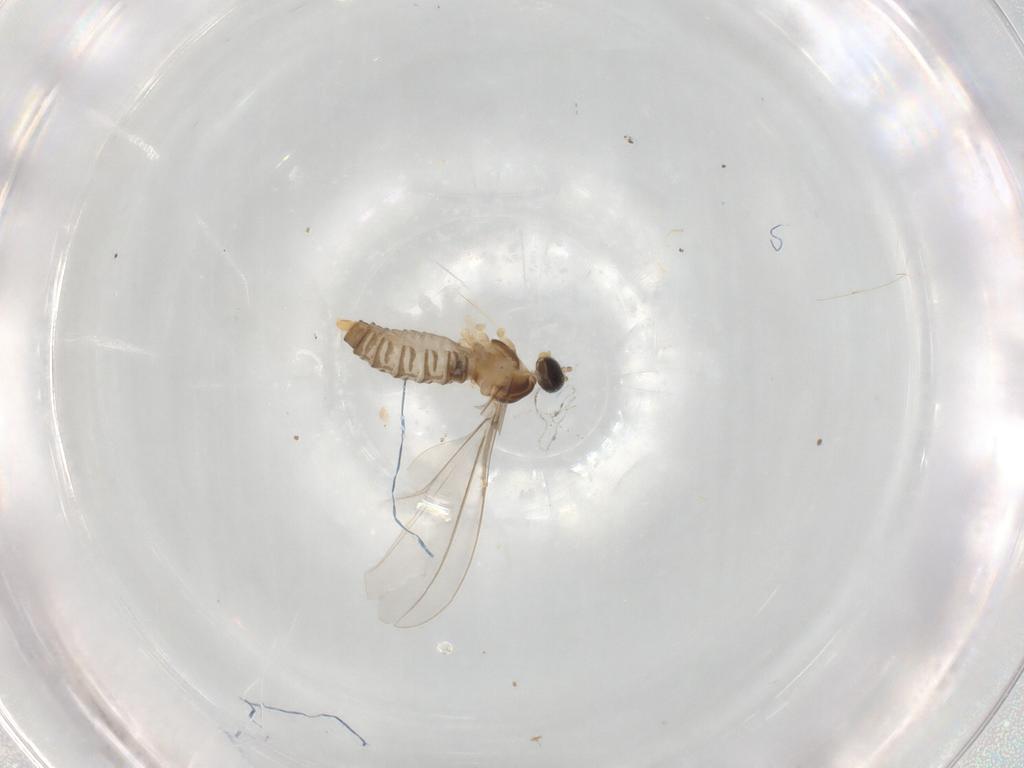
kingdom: Animalia
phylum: Arthropoda
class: Insecta
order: Diptera
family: Cecidomyiidae
